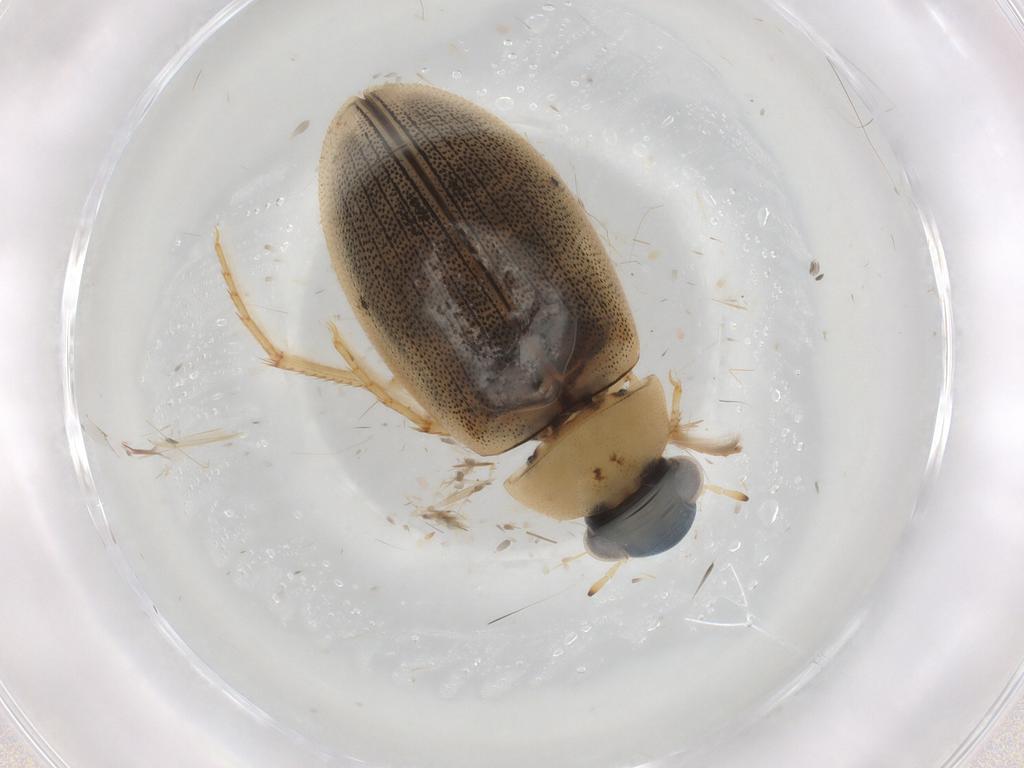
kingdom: Animalia
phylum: Arthropoda
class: Insecta
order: Coleoptera
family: Hydrophilidae
